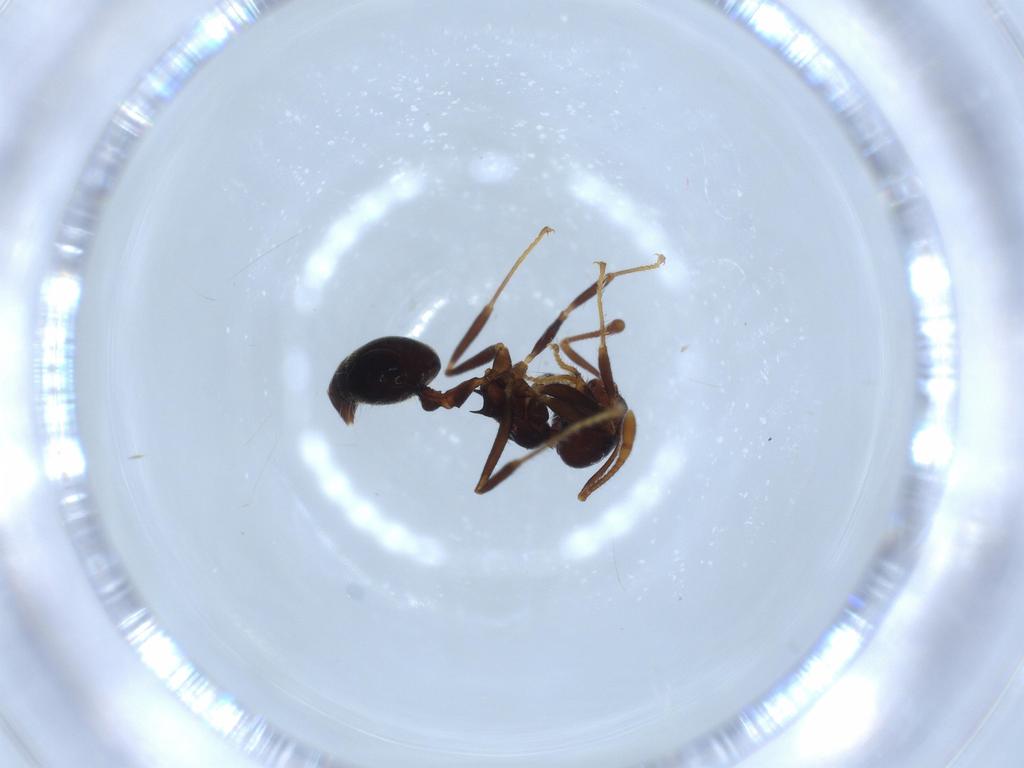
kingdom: Animalia
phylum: Arthropoda
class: Insecta
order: Hymenoptera
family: Formicidae
